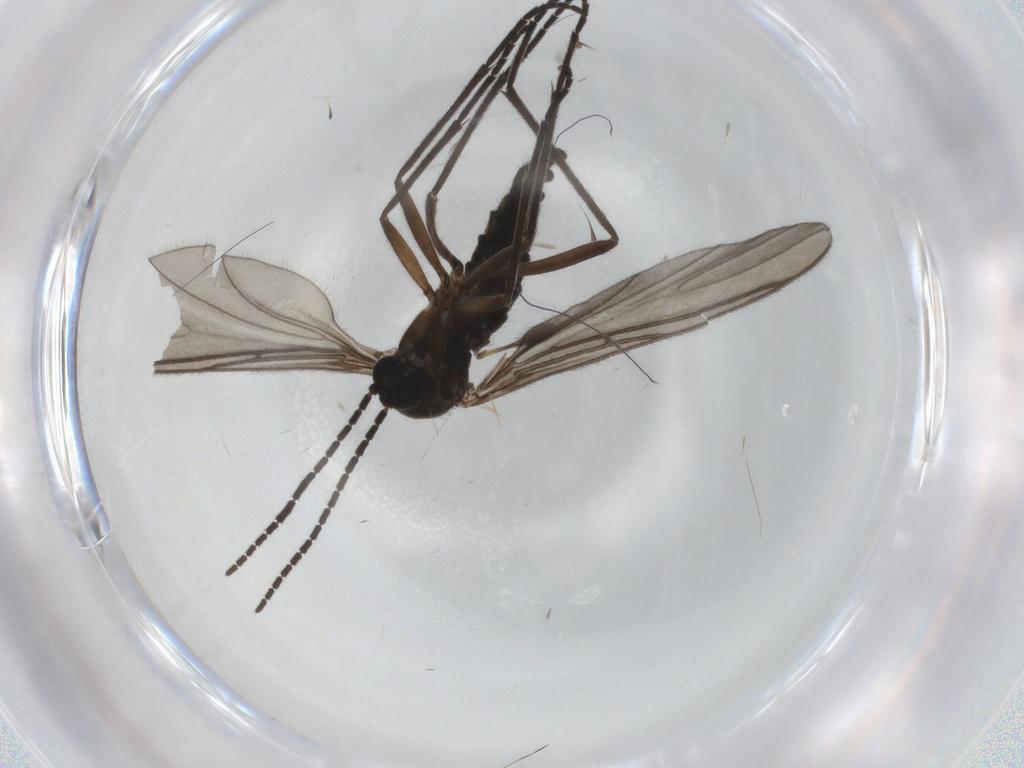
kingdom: Animalia
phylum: Arthropoda
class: Insecta
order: Diptera
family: Sciaridae
